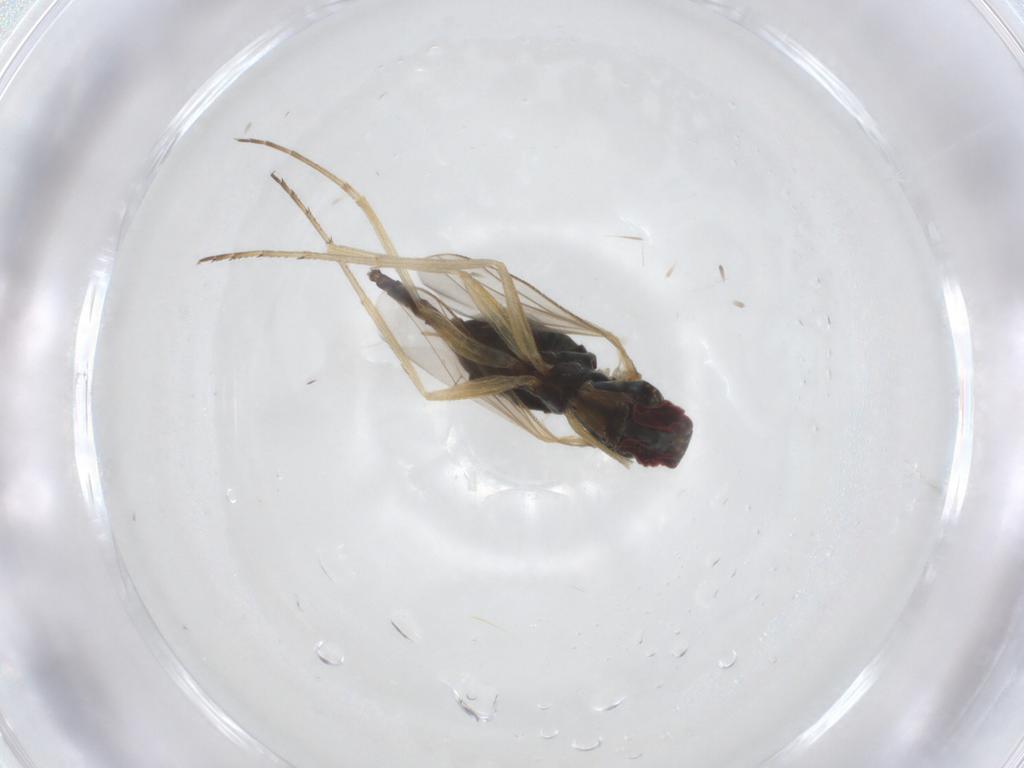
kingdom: Animalia
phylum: Arthropoda
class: Insecta
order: Diptera
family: Dolichopodidae
